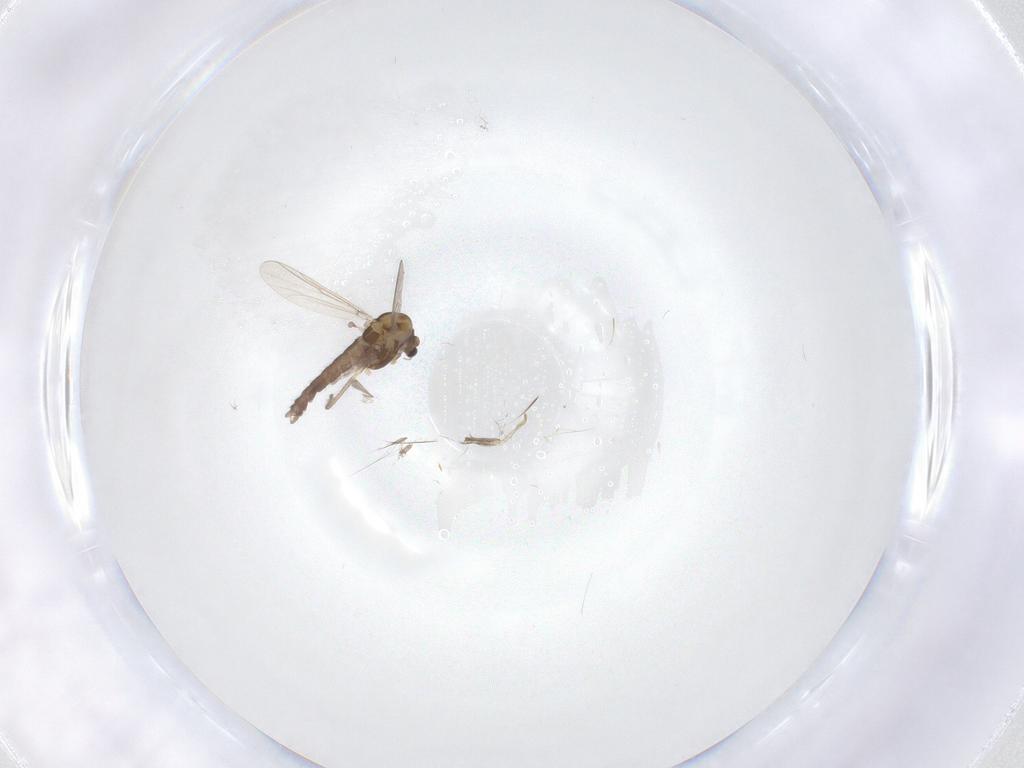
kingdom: Animalia
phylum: Arthropoda
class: Insecta
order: Diptera
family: Chironomidae
